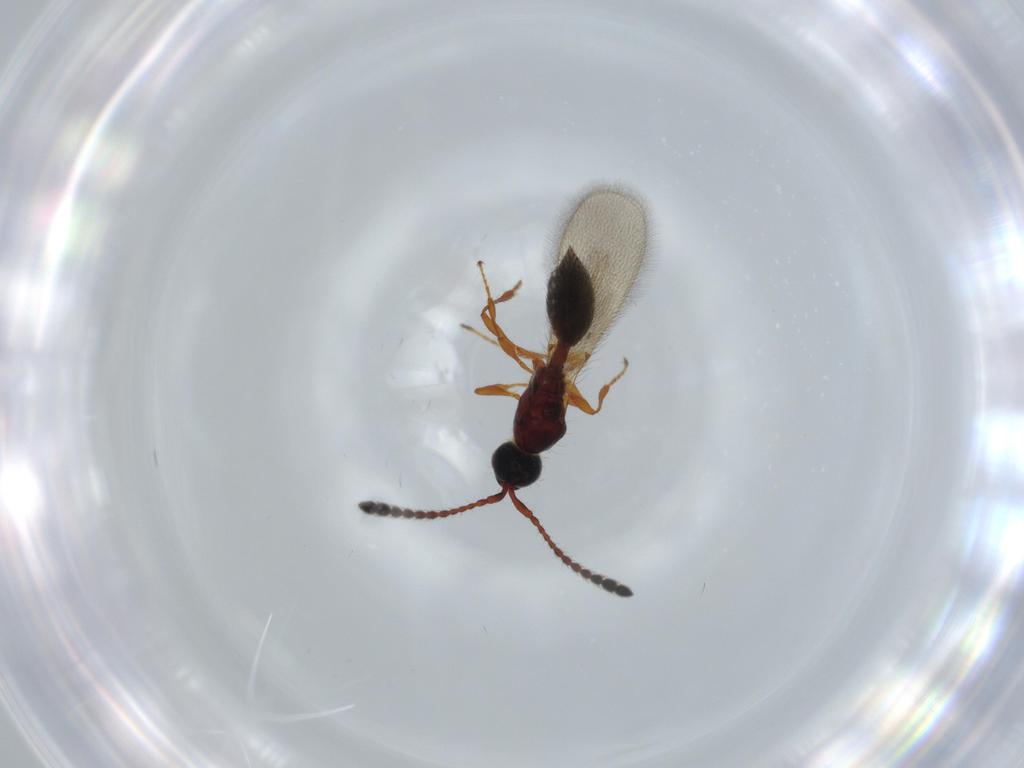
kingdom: Animalia
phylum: Arthropoda
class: Insecta
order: Hymenoptera
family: Diapriidae
